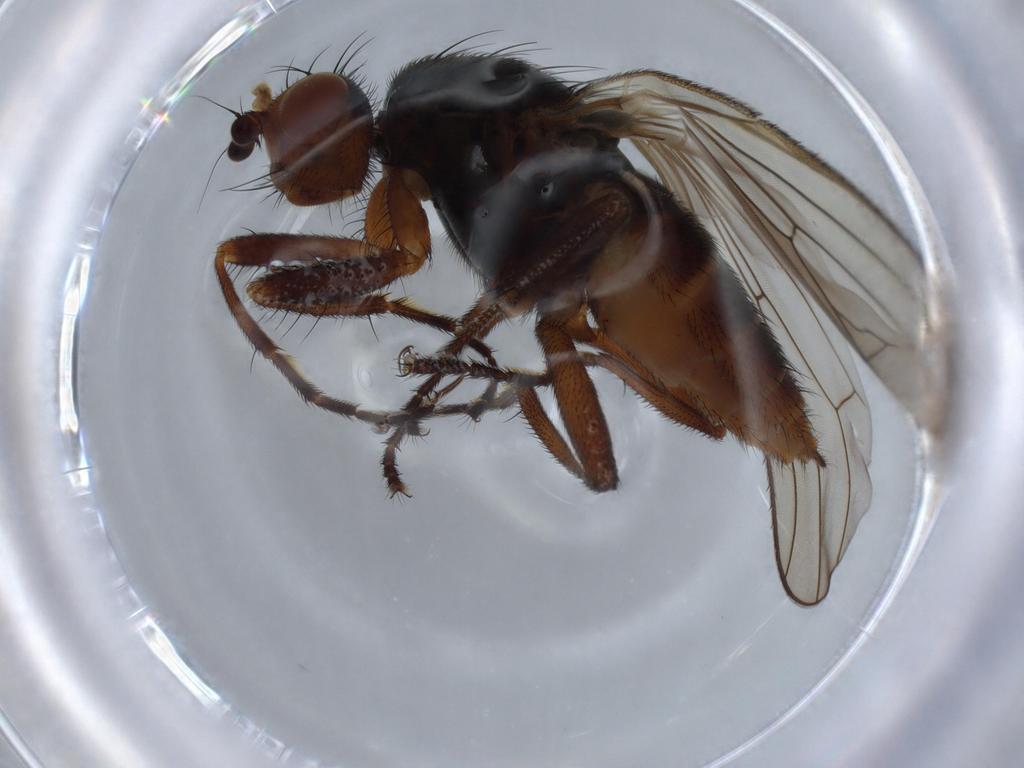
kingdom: Animalia
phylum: Arthropoda
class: Insecta
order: Diptera
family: Heleomyzidae
